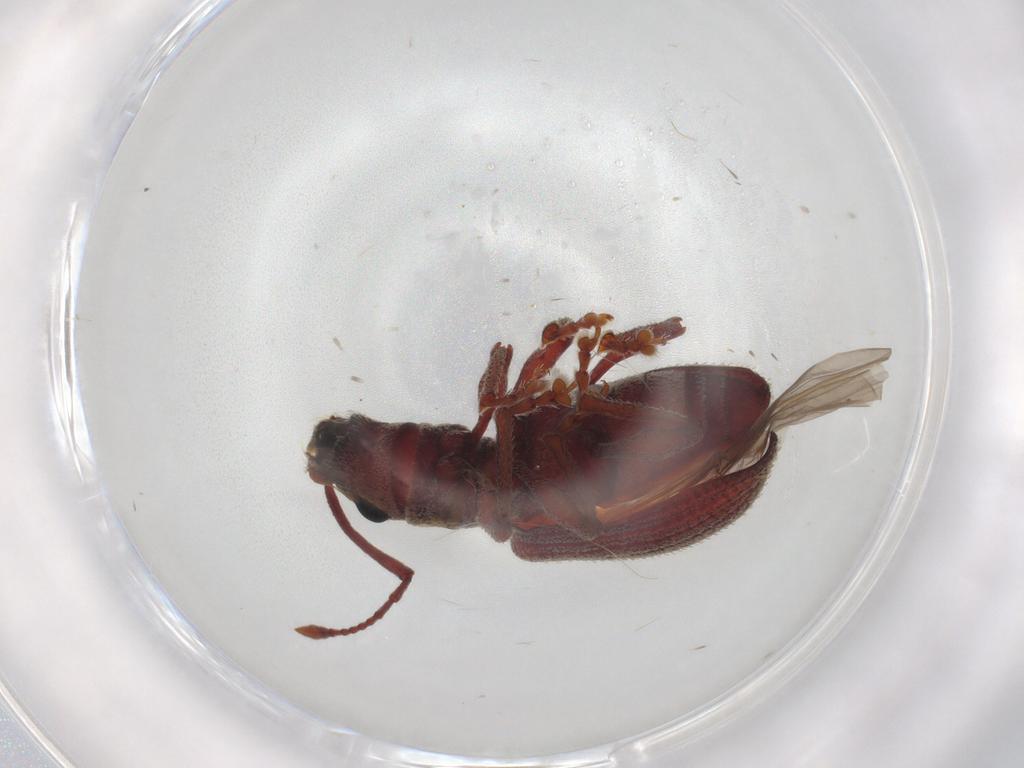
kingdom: Animalia
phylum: Arthropoda
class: Insecta
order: Coleoptera
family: Curculionidae
